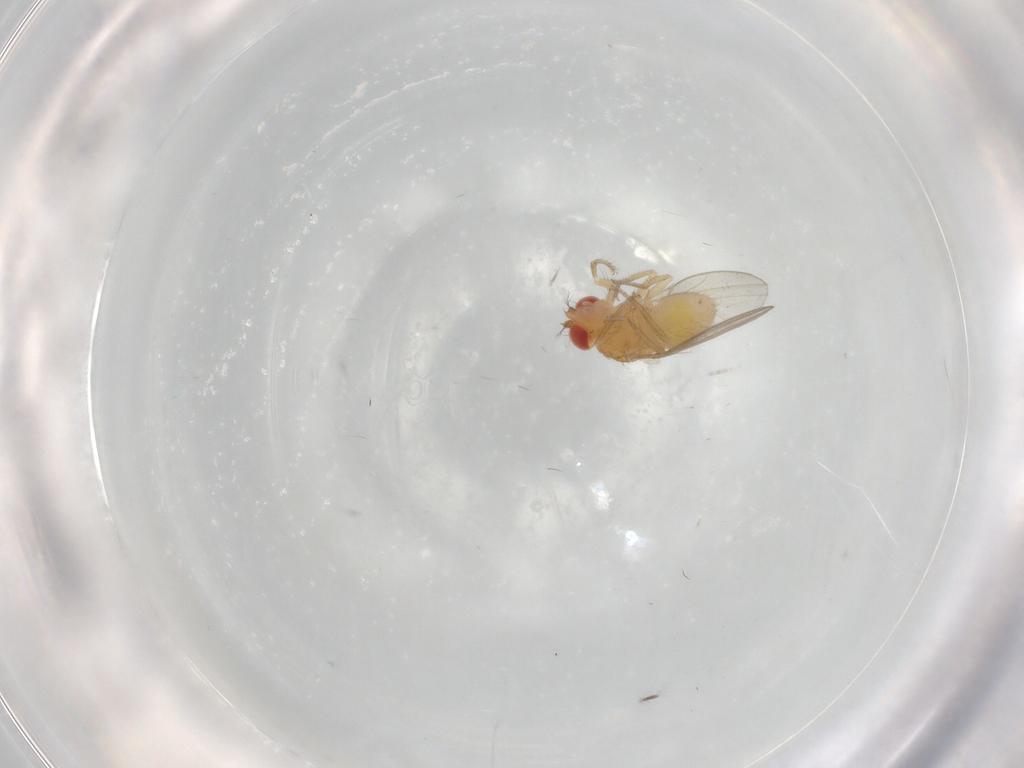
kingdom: Animalia
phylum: Arthropoda
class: Insecta
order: Diptera
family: Drosophilidae
